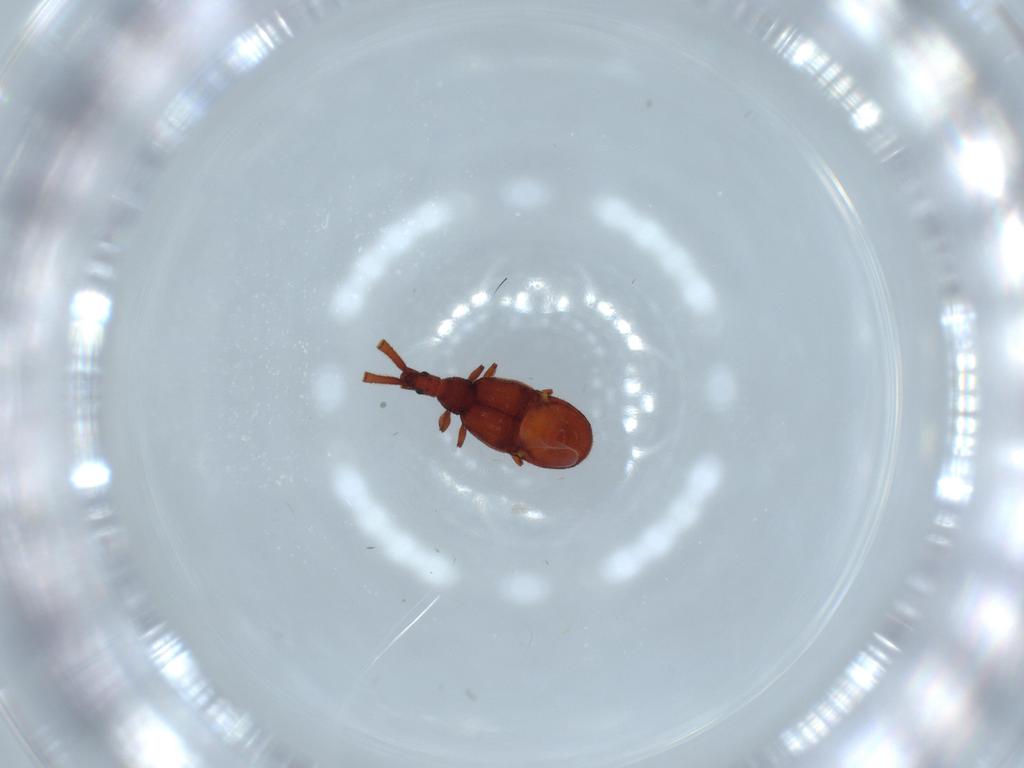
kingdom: Animalia
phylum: Arthropoda
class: Insecta
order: Coleoptera
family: Staphylinidae
